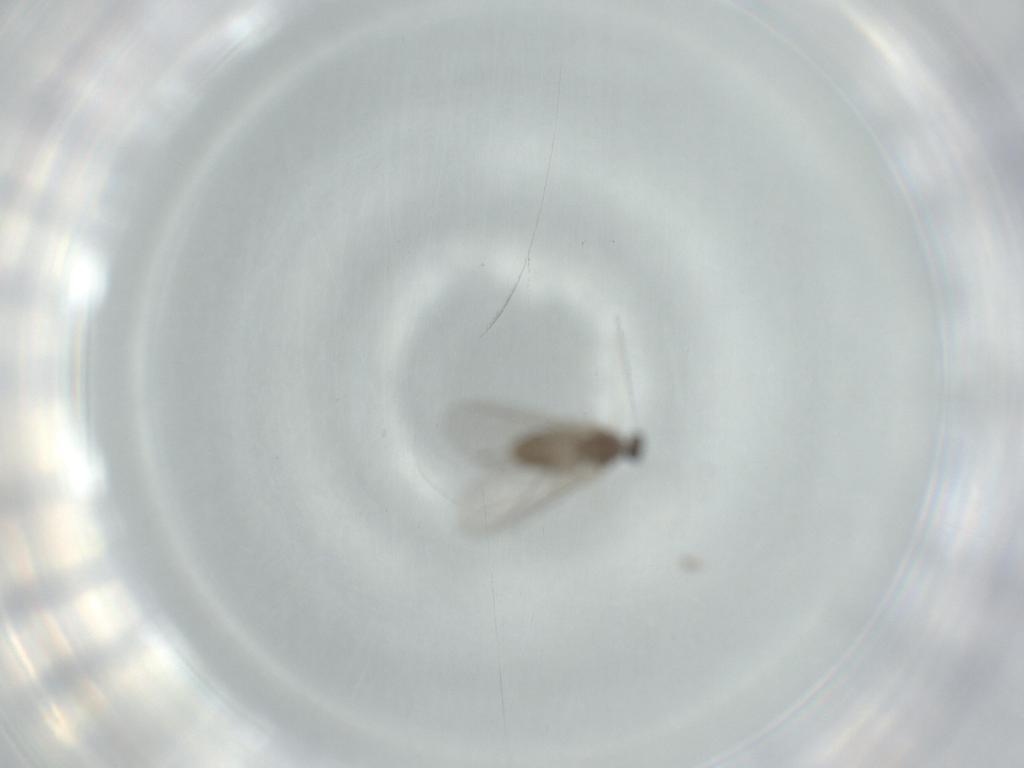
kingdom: Animalia
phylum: Arthropoda
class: Insecta
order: Diptera
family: Cecidomyiidae
